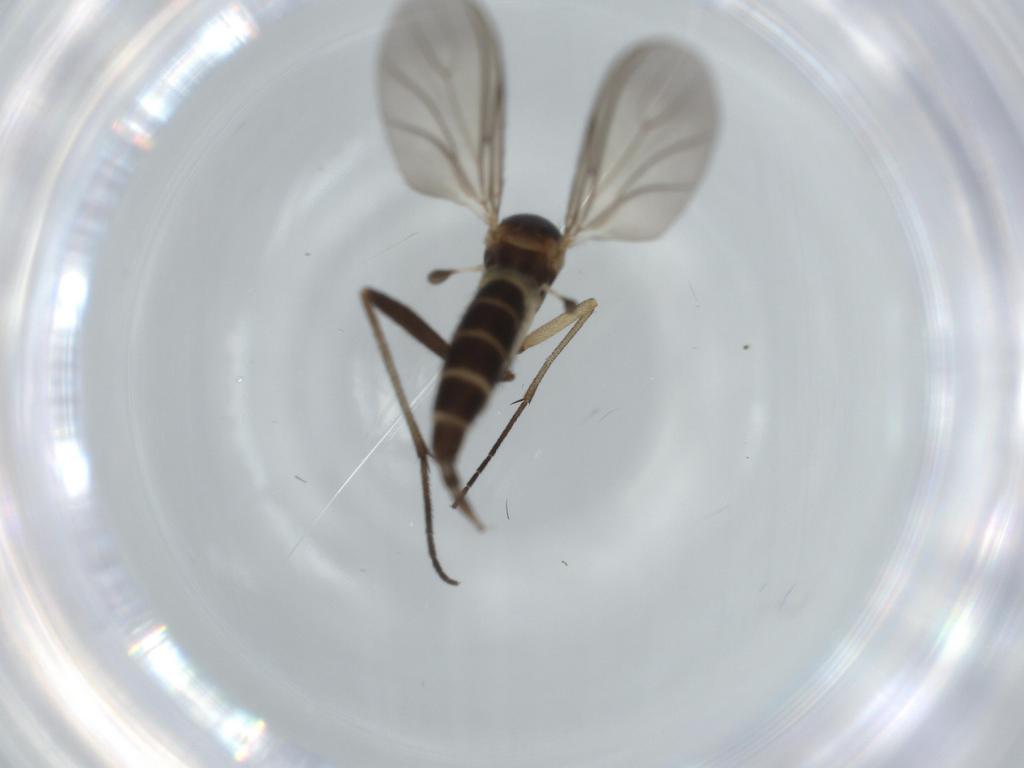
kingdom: Animalia
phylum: Arthropoda
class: Insecta
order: Diptera
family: Sciaridae
